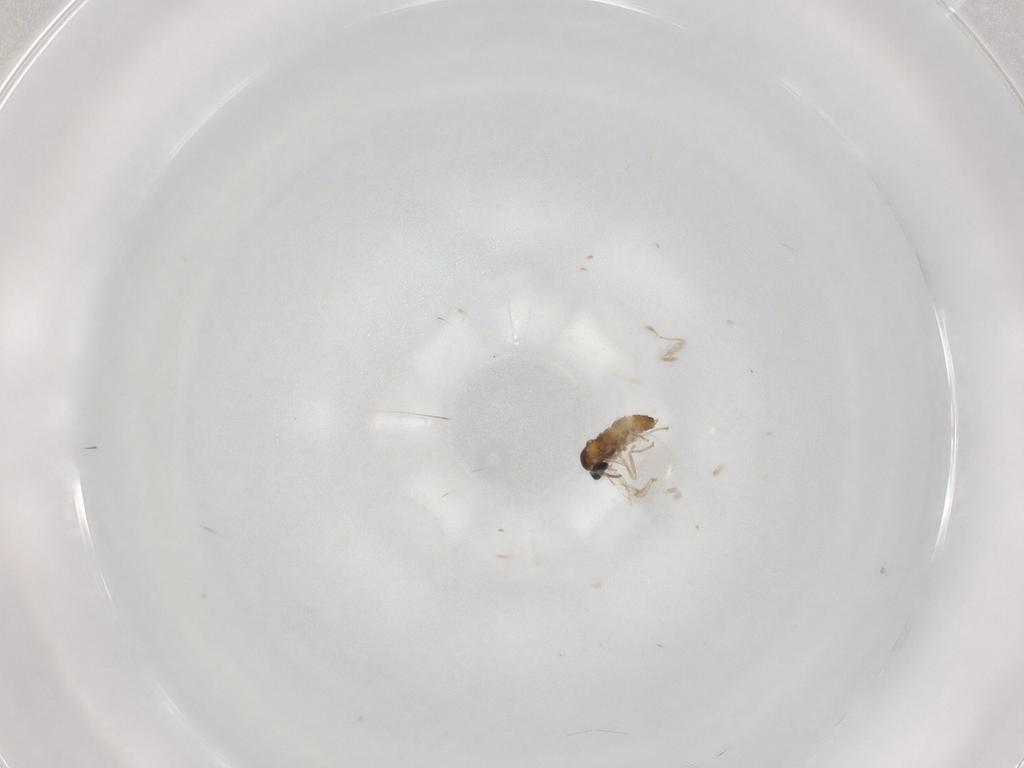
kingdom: Animalia
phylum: Arthropoda
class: Insecta
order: Diptera
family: Cecidomyiidae
